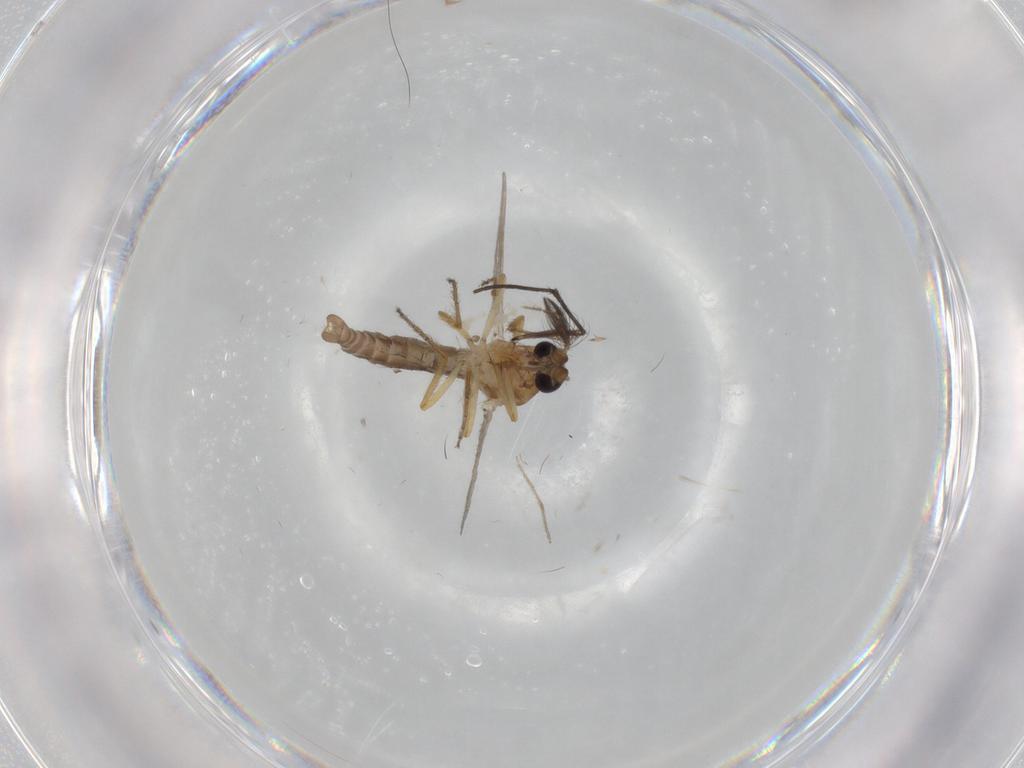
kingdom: Animalia
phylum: Arthropoda
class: Insecta
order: Diptera
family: Ceratopogonidae
